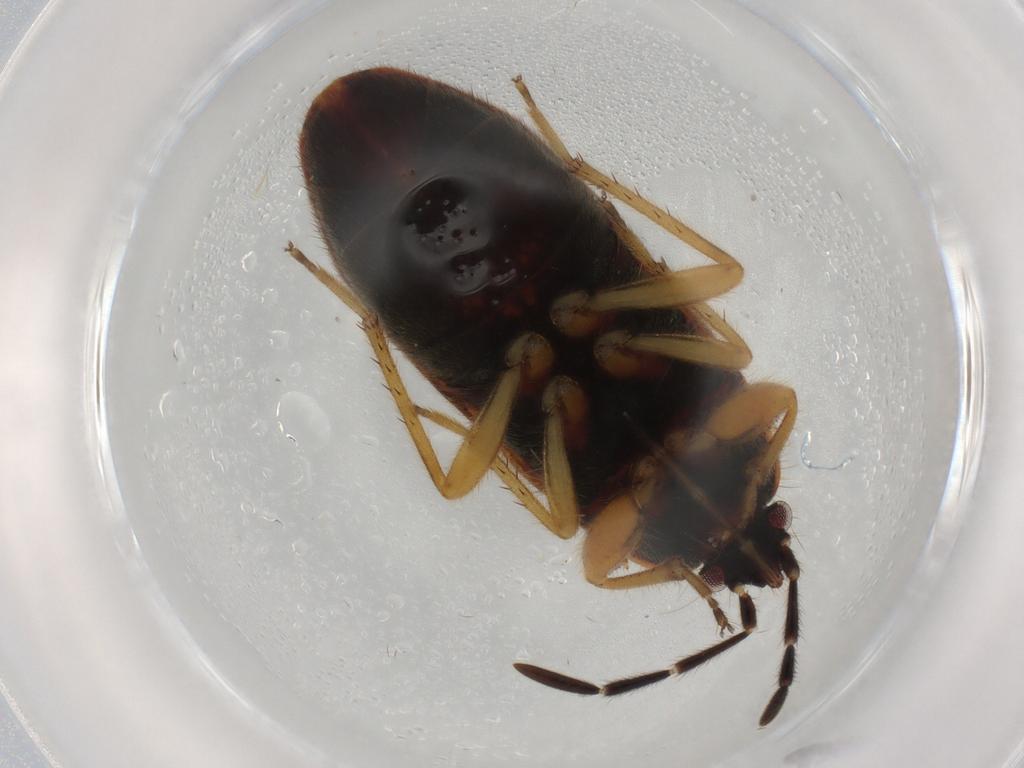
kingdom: Animalia
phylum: Arthropoda
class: Insecta
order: Hemiptera
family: Rhyparochromidae
